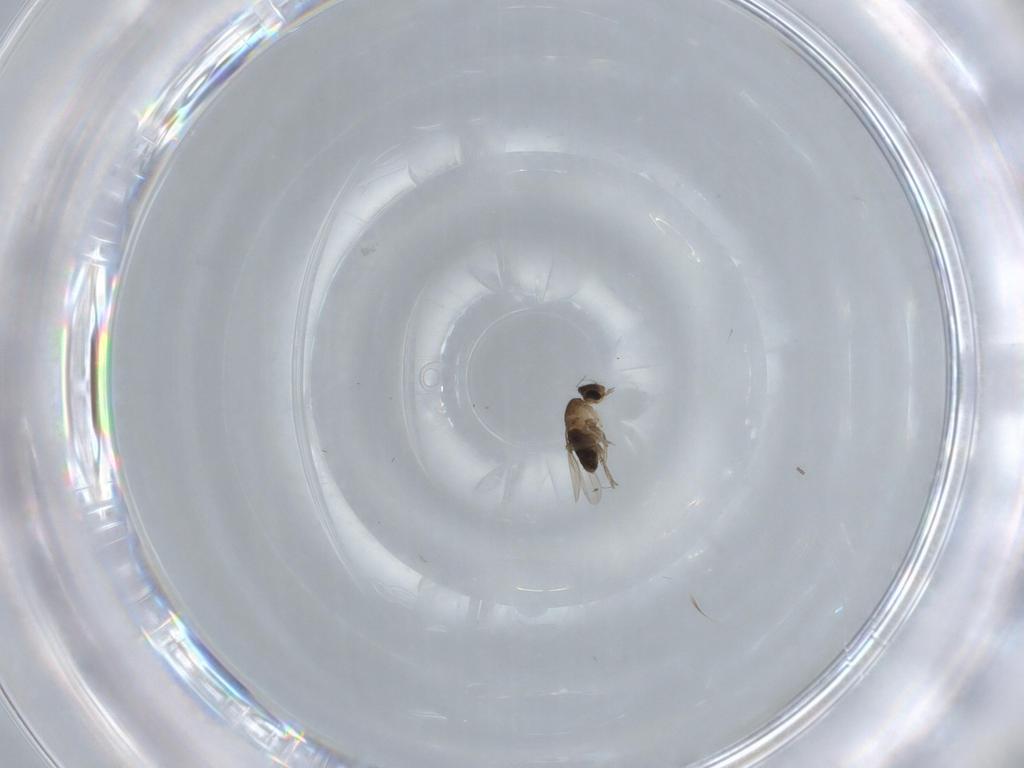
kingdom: Animalia
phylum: Arthropoda
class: Insecta
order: Diptera
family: Phoridae
